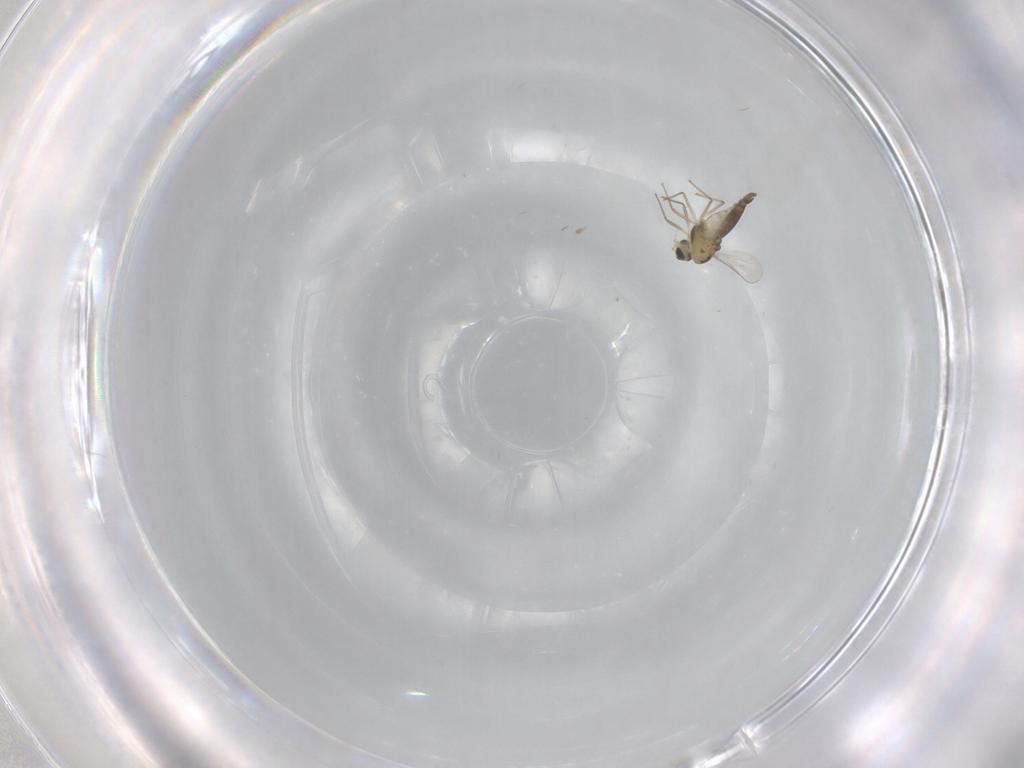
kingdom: Animalia
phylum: Arthropoda
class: Insecta
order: Diptera
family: Chironomidae
